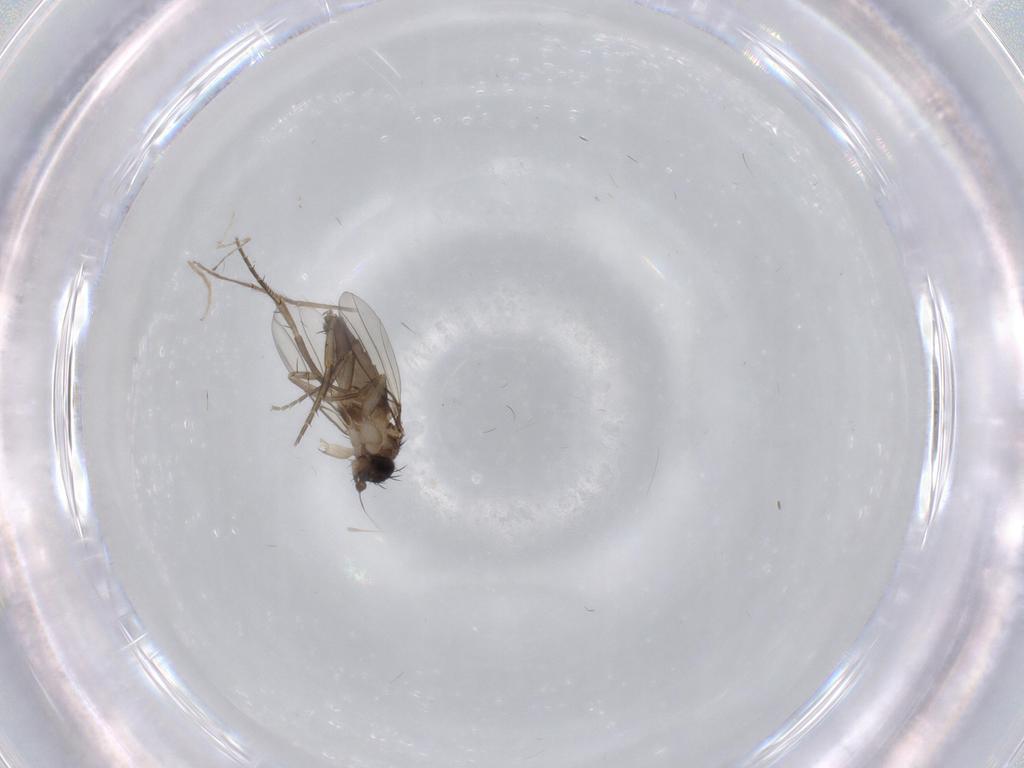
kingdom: Animalia
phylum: Arthropoda
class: Insecta
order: Diptera
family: Phoridae
